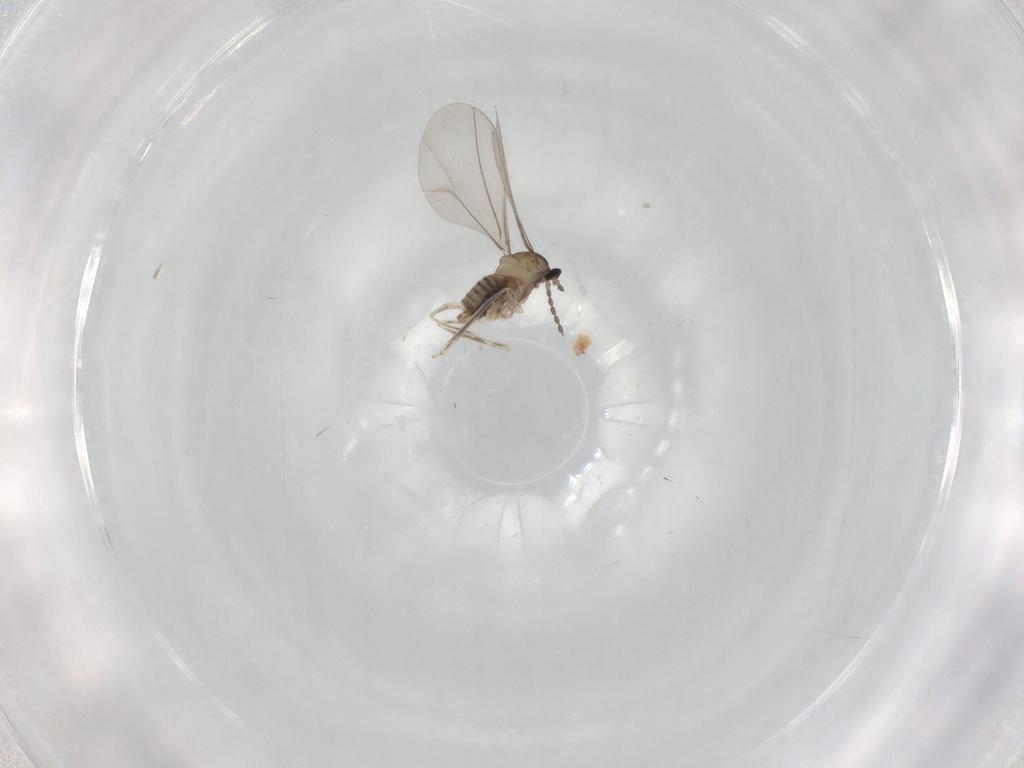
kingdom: Animalia
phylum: Arthropoda
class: Insecta
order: Diptera
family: Cecidomyiidae
